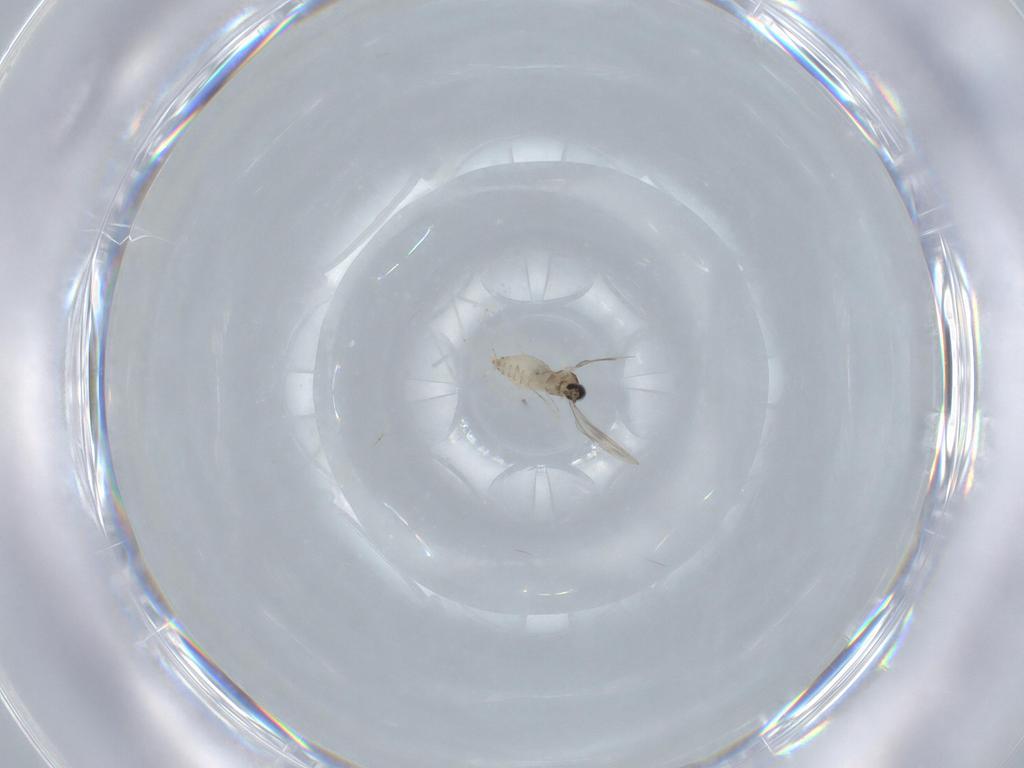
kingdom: Animalia
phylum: Arthropoda
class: Insecta
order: Diptera
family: Cecidomyiidae
